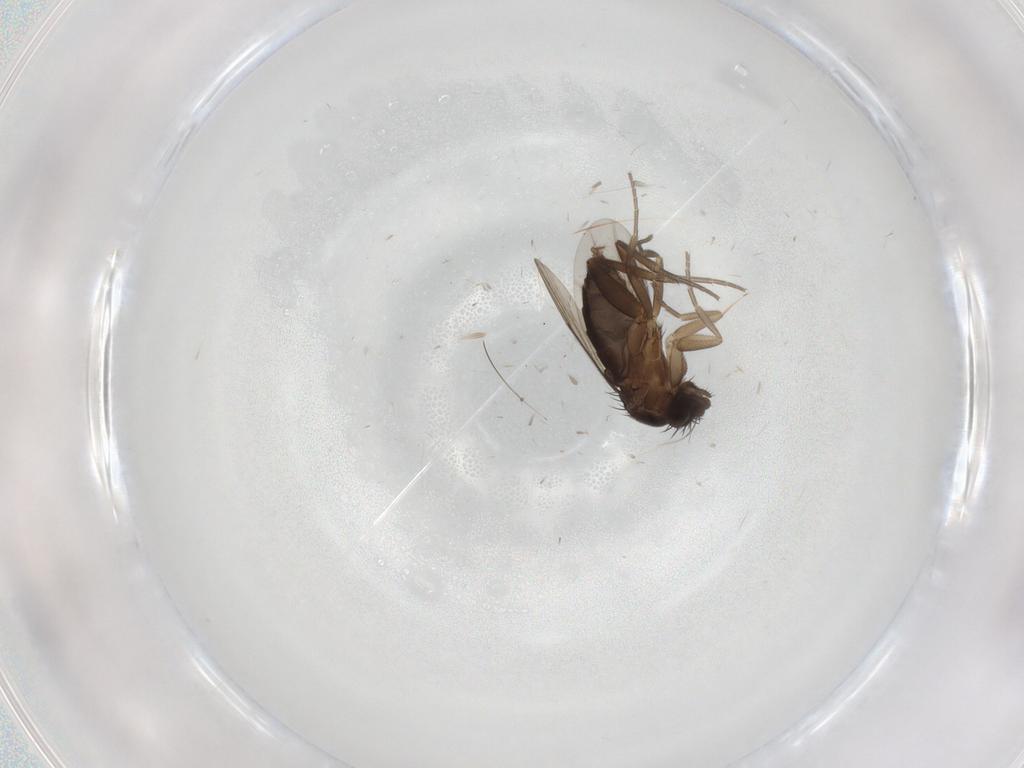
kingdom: Animalia
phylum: Arthropoda
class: Insecta
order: Diptera
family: Phoridae
